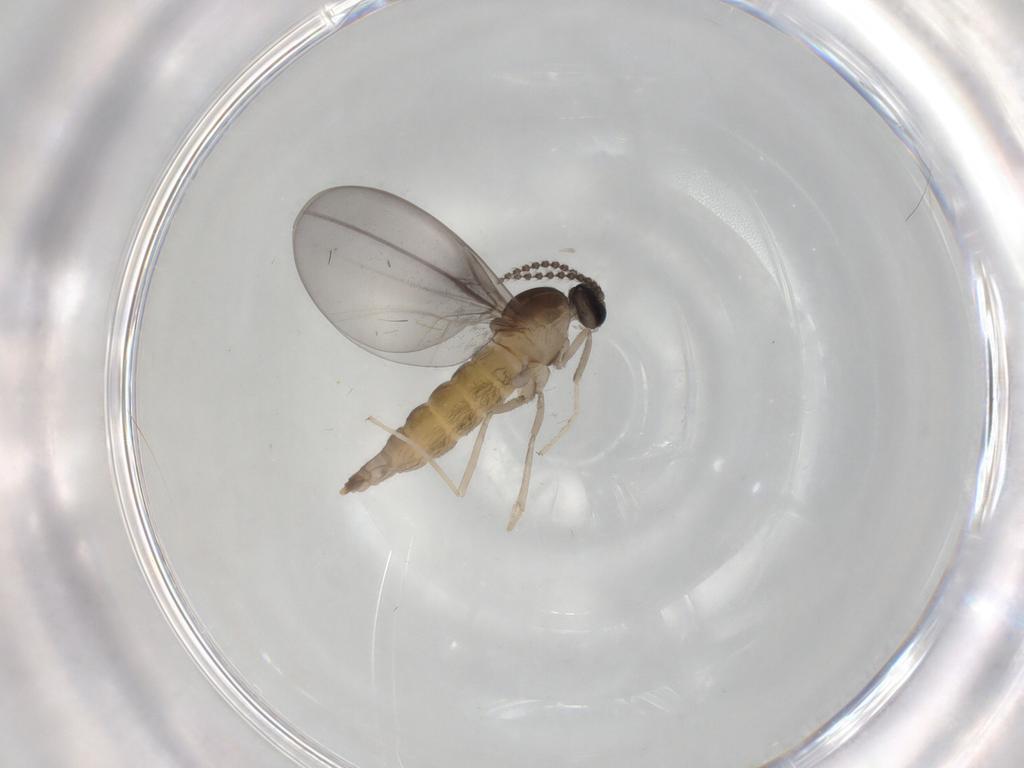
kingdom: Animalia
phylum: Arthropoda
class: Insecta
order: Diptera
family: Cecidomyiidae
